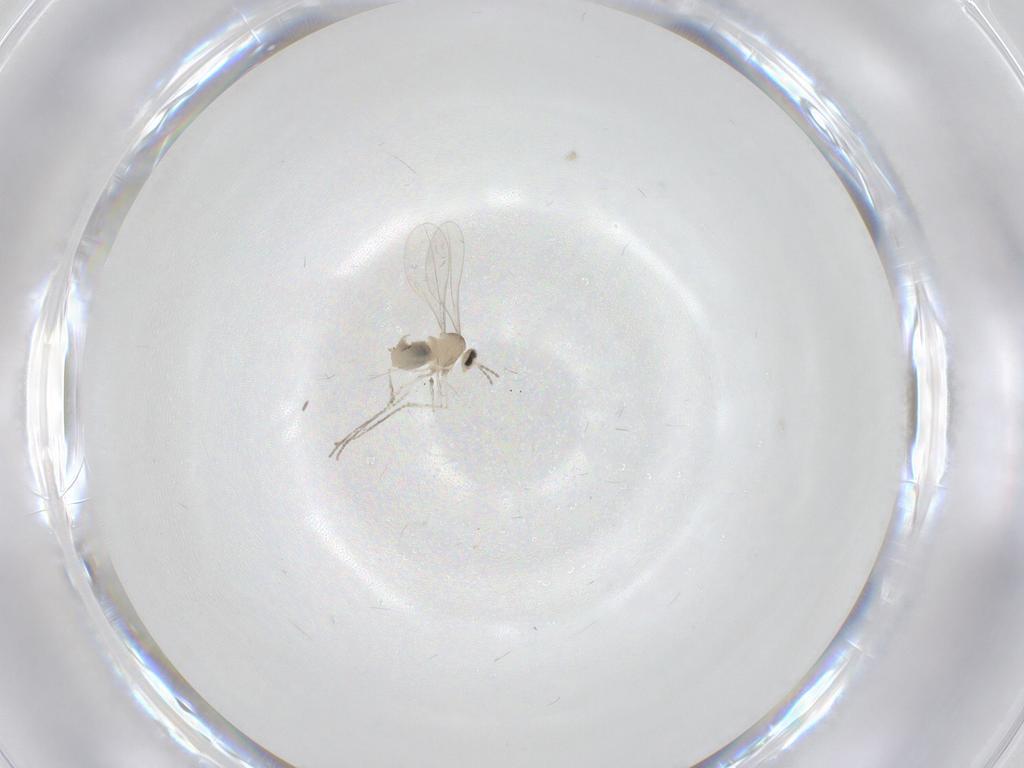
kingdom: Animalia
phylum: Arthropoda
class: Insecta
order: Diptera
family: Cecidomyiidae
